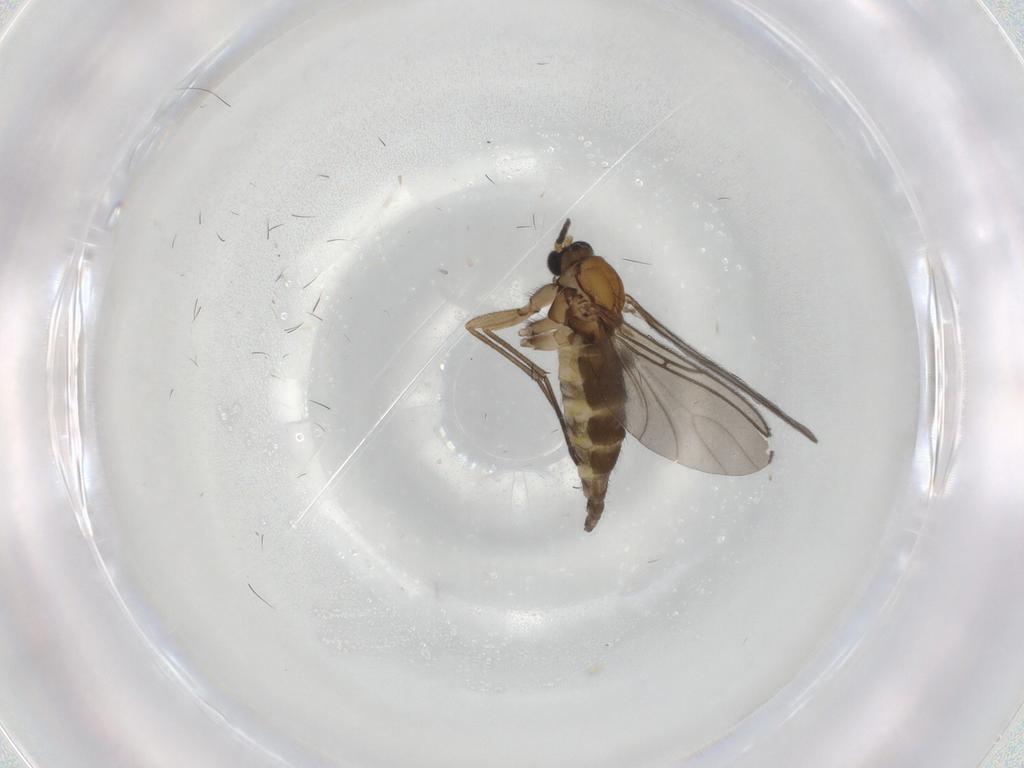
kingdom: Animalia
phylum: Arthropoda
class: Insecta
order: Diptera
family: Sciaridae
